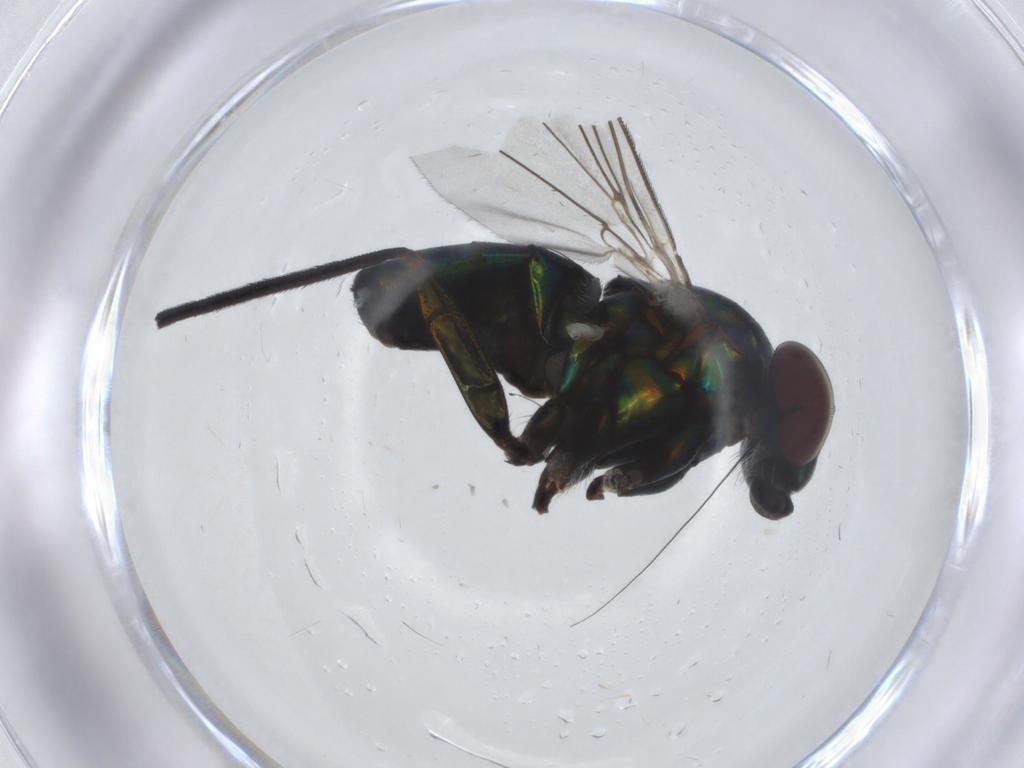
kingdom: Animalia
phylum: Arthropoda
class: Insecta
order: Diptera
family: Dolichopodidae
